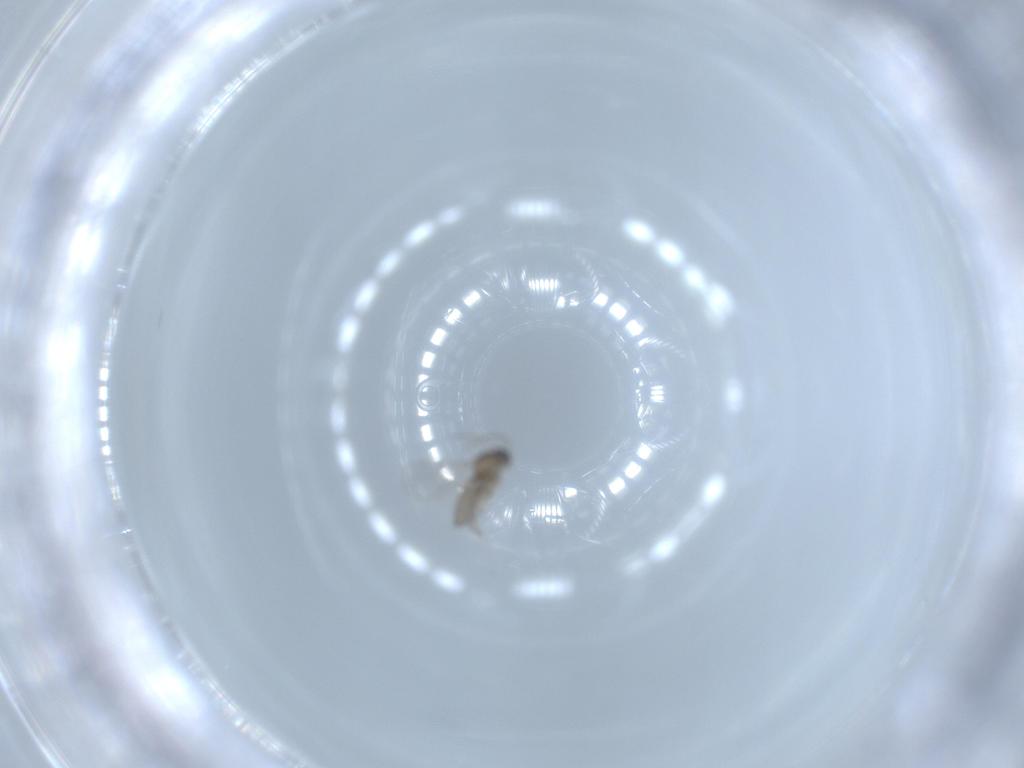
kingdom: Animalia
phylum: Arthropoda
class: Insecta
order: Diptera
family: Cecidomyiidae
